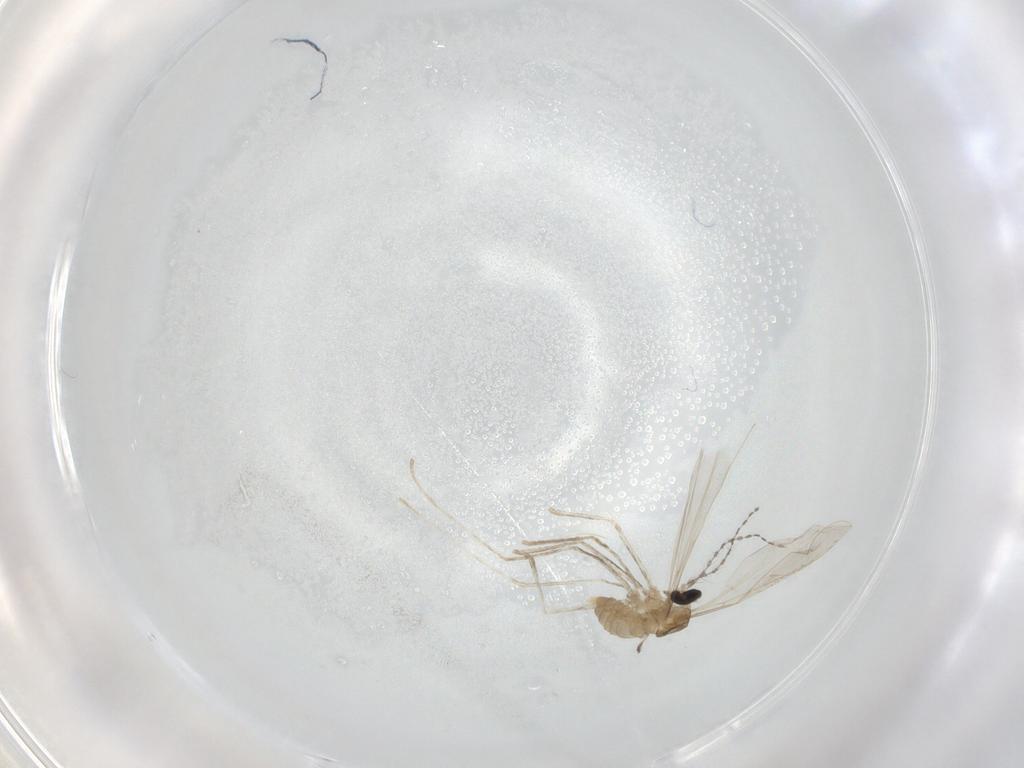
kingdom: Animalia
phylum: Arthropoda
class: Insecta
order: Diptera
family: Cecidomyiidae
